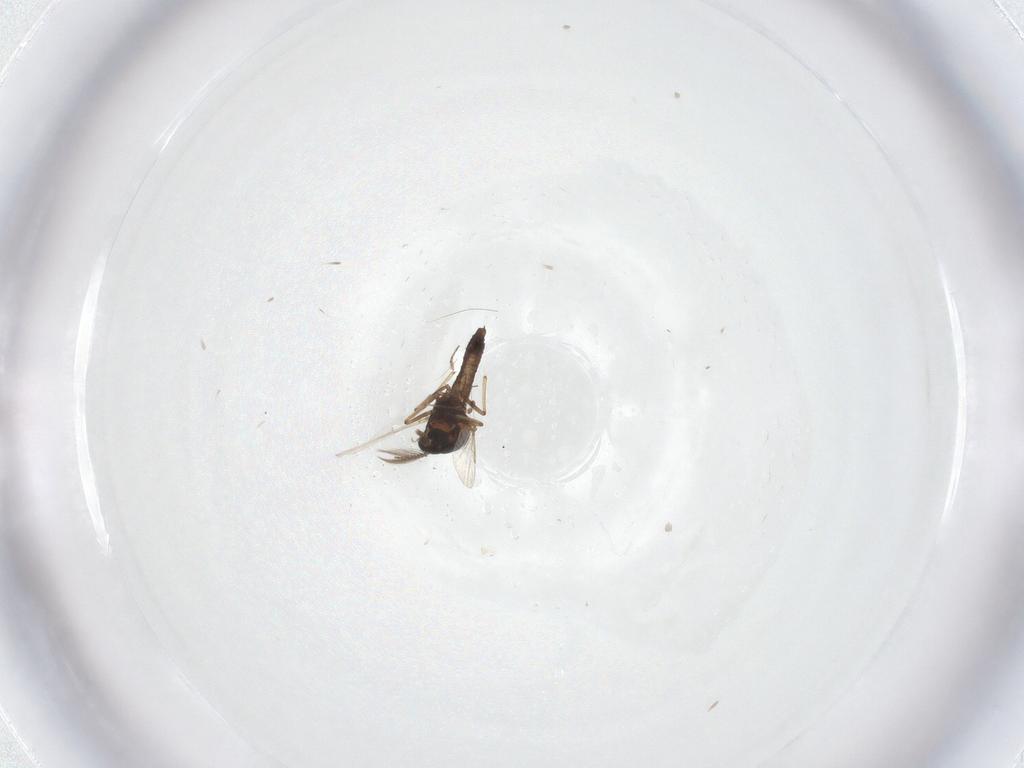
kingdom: Animalia
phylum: Arthropoda
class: Insecta
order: Diptera
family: Ceratopogonidae
